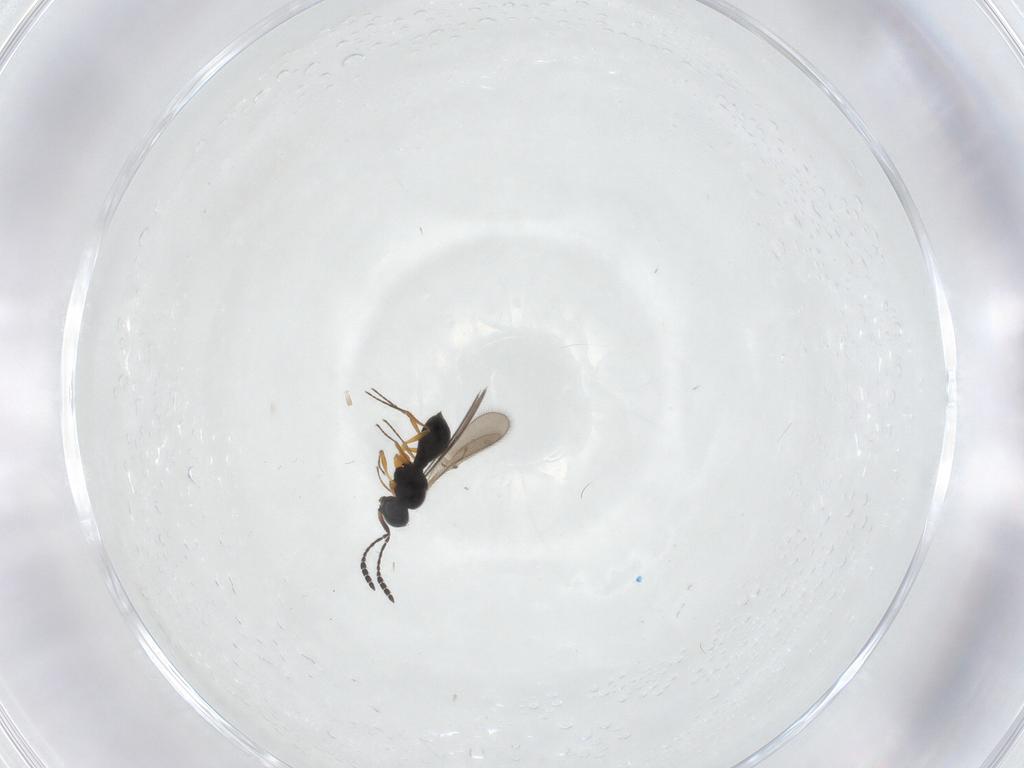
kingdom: Animalia
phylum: Arthropoda
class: Insecta
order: Hymenoptera
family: Scelionidae
